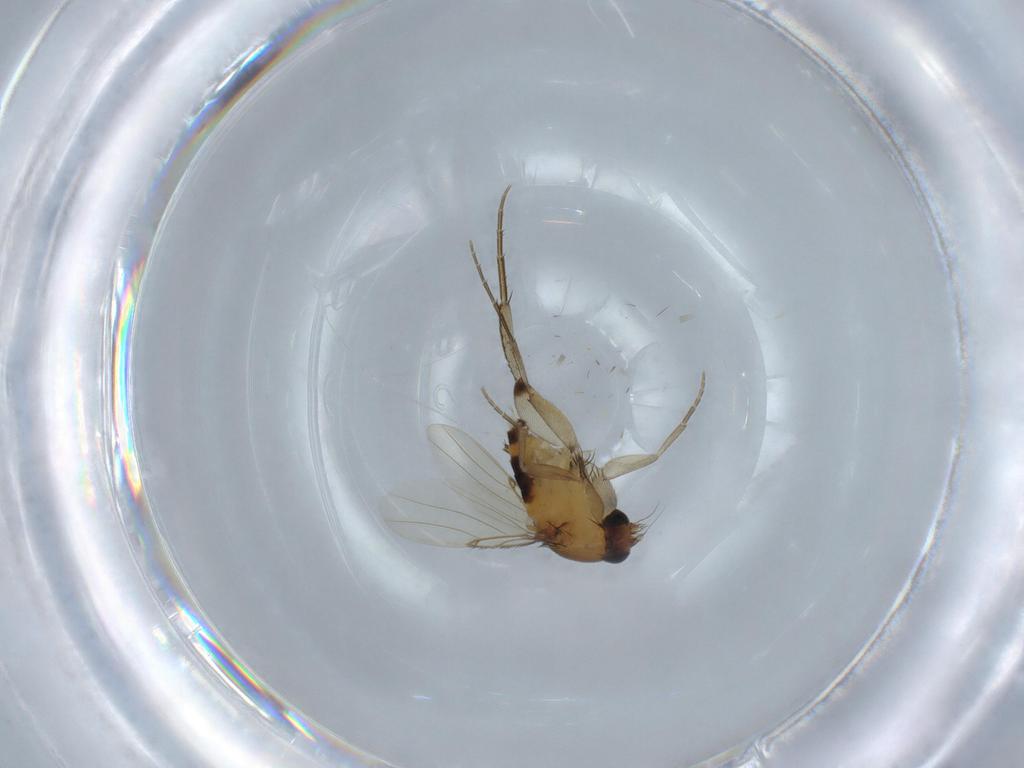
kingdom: Animalia
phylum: Arthropoda
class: Insecta
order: Diptera
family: Phoridae
